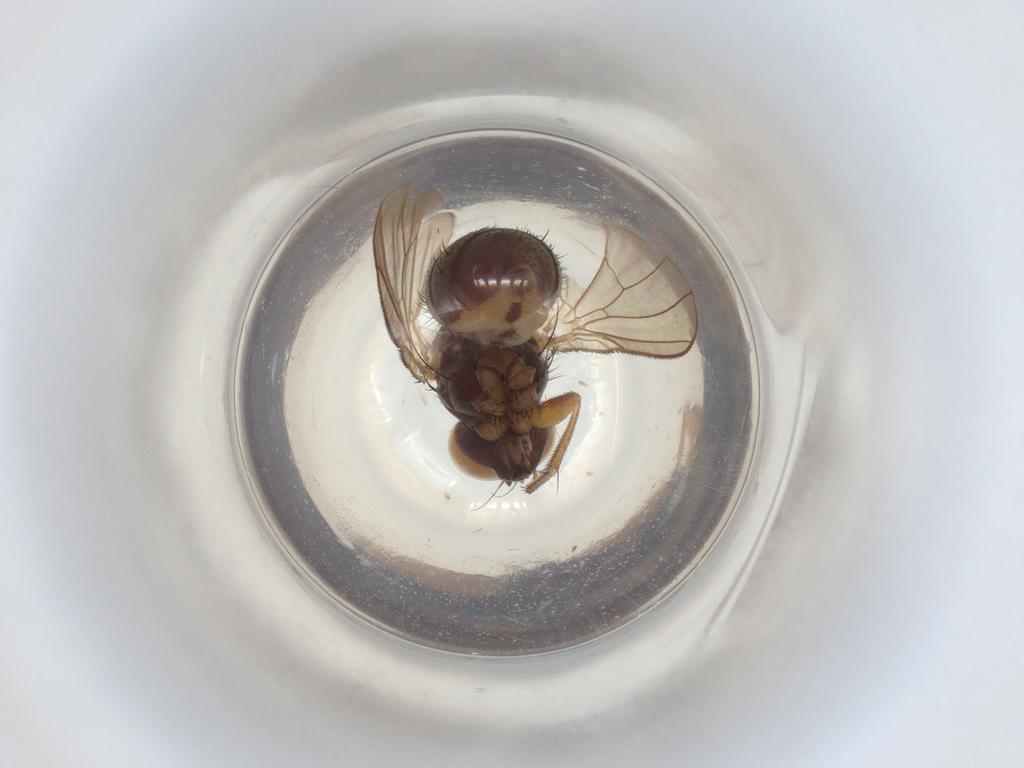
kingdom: Animalia
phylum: Arthropoda
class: Insecta
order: Diptera
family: Muscidae
